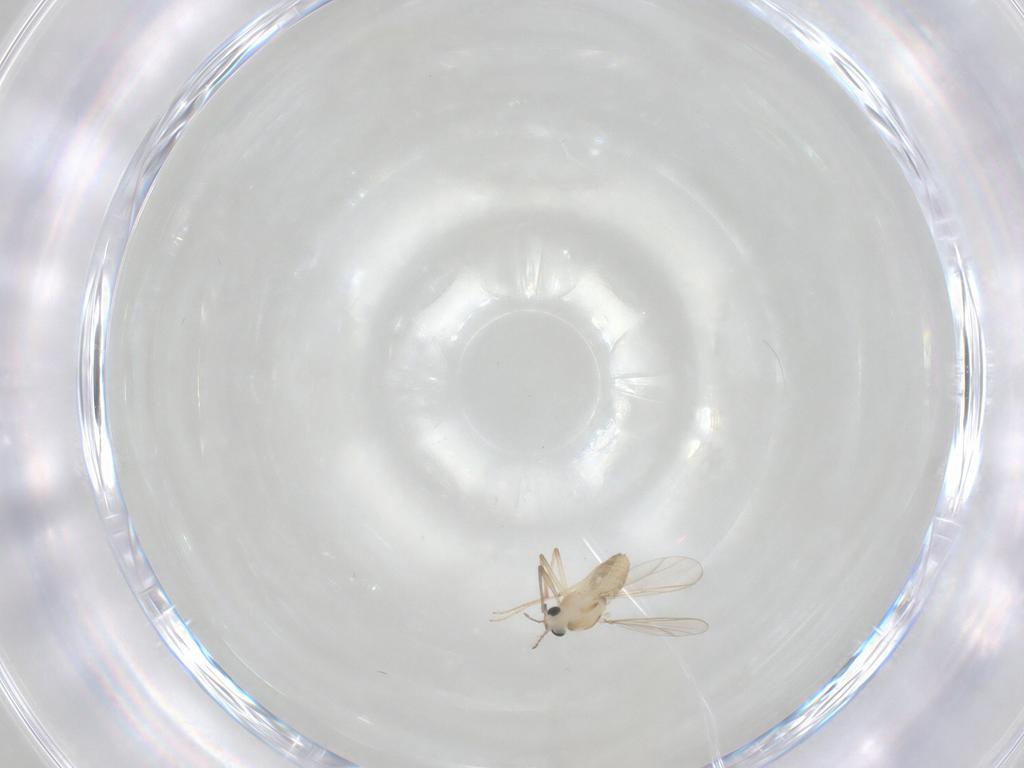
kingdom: Animalia
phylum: Arthropoda
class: Insecta
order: Diptera
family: Chironomidae
